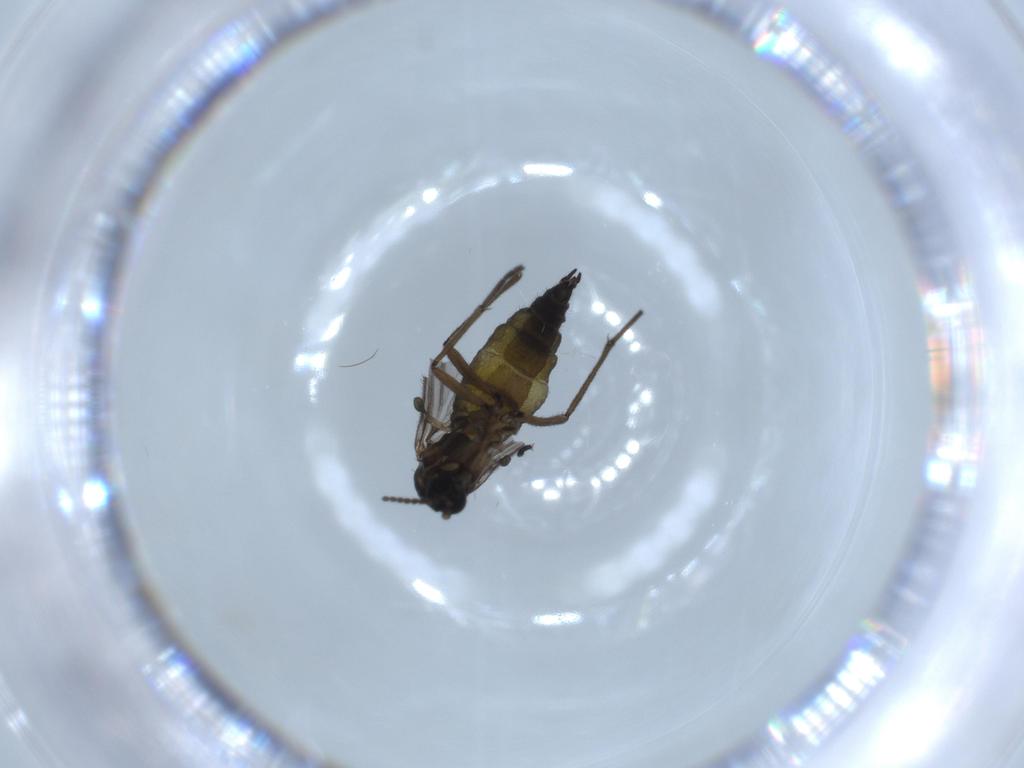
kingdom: Animalia
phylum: Arthropoda
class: Insecta
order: Diptera
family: Sciaridae
